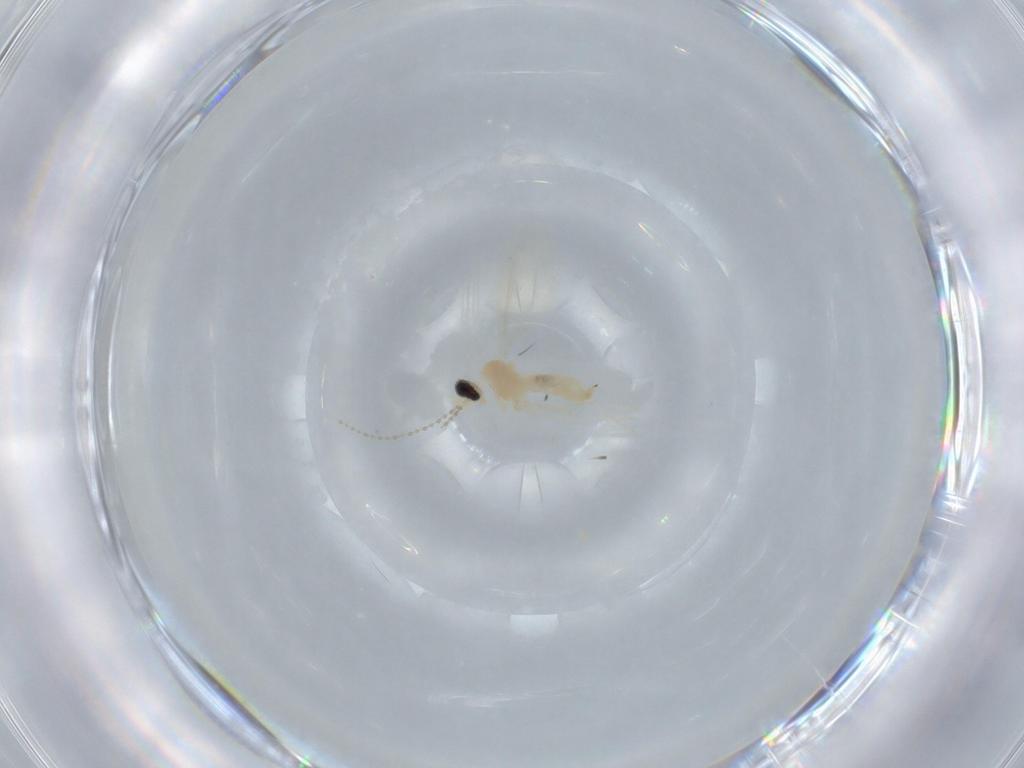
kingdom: Animalia
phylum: Arthropoda
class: Insecta
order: Diptera
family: Cecidomyiidae
